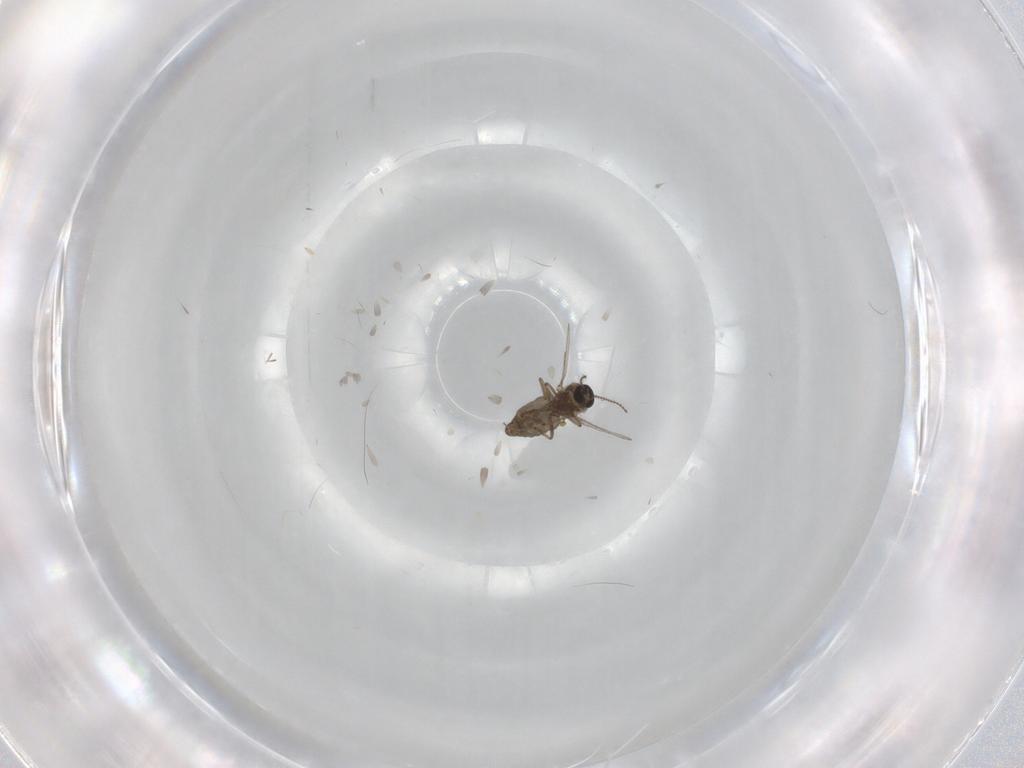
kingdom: Animalia
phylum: Arthropoda
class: Insecta
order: Diptera
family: Ceratopogonidae
